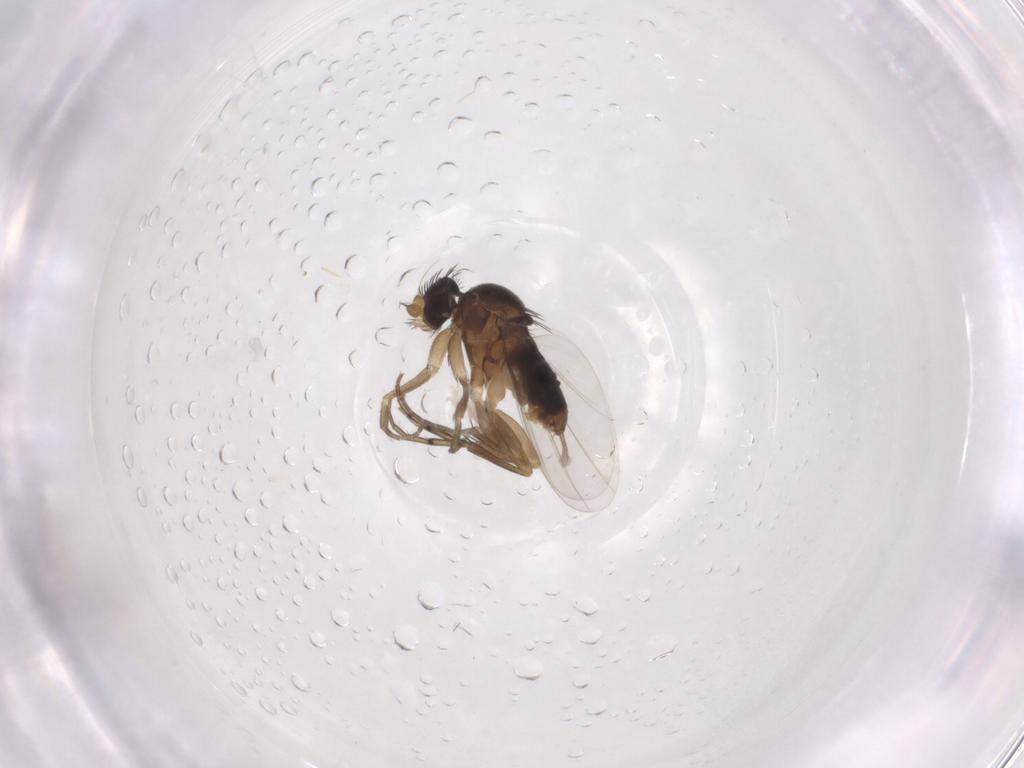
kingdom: Animalia
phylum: Arthropoda
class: Insecta
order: Diptera
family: Phoridae
